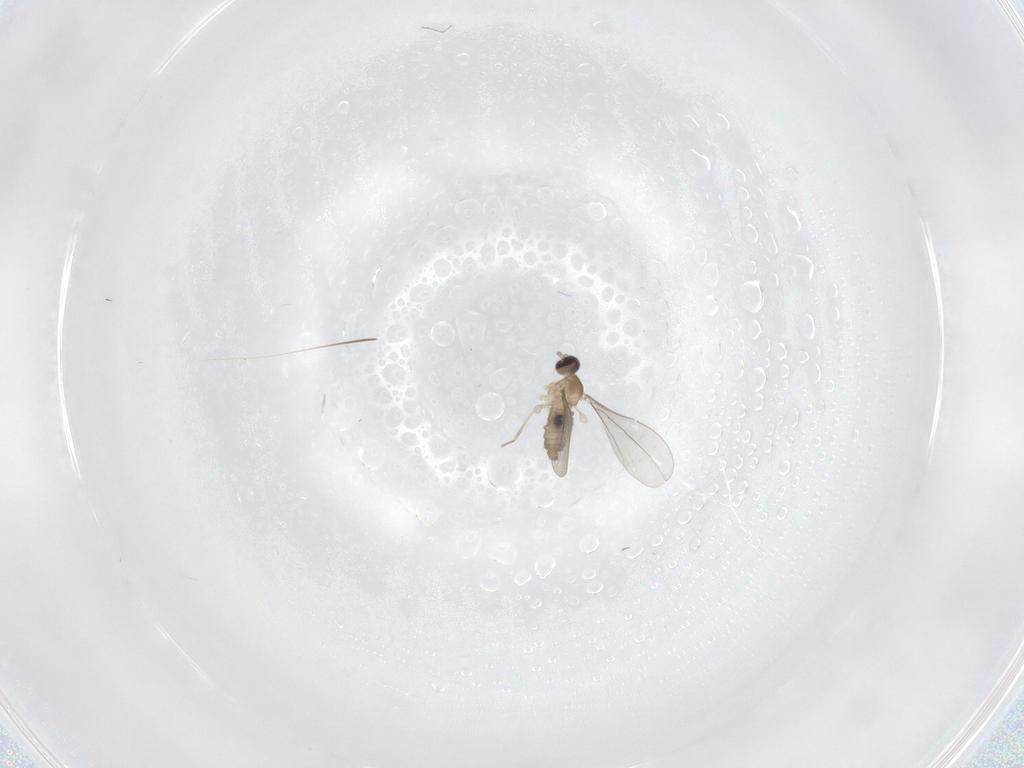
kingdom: Animalia
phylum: Arthropoda
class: Insecta
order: Diptera
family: Cecidomyiidae
